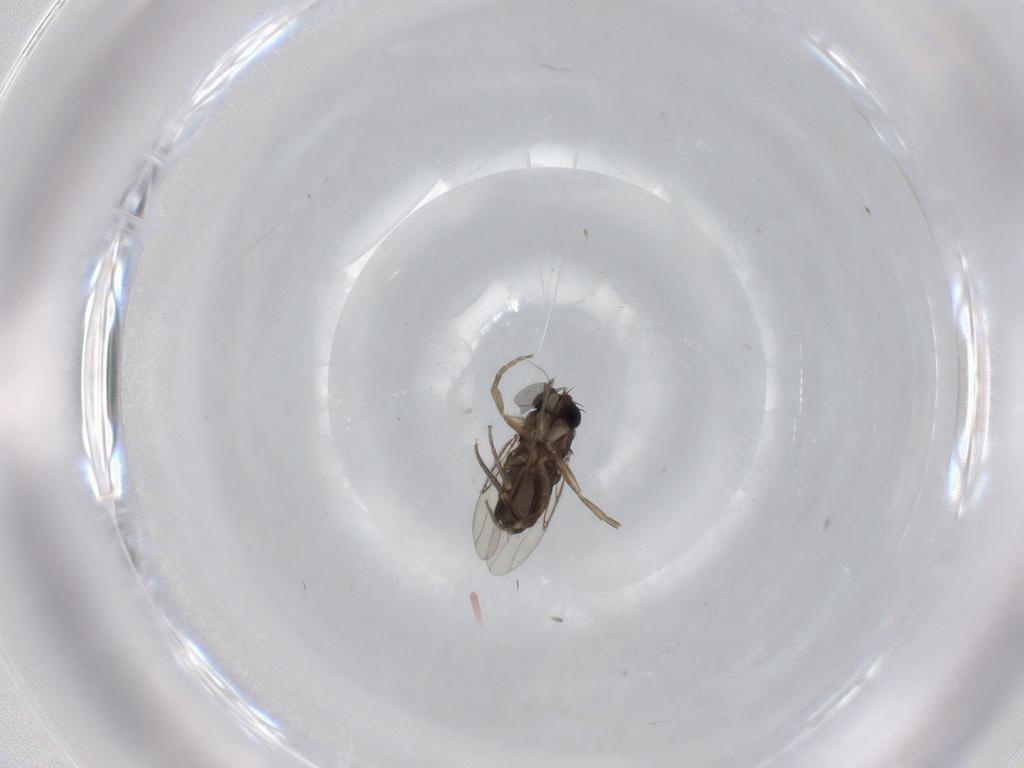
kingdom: Animalia
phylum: Arthropoda
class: Insecta
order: Diptera
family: Phoridae
